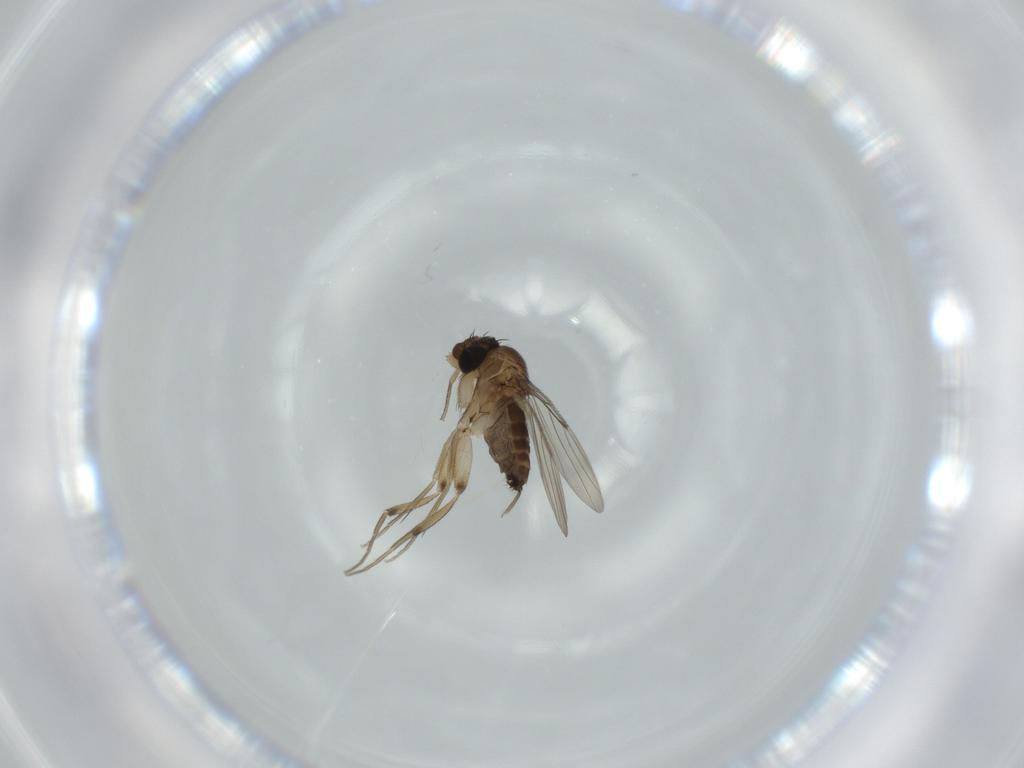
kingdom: Animalia
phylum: Arthropoda
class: Insecta
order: Diptera
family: Phoridae
